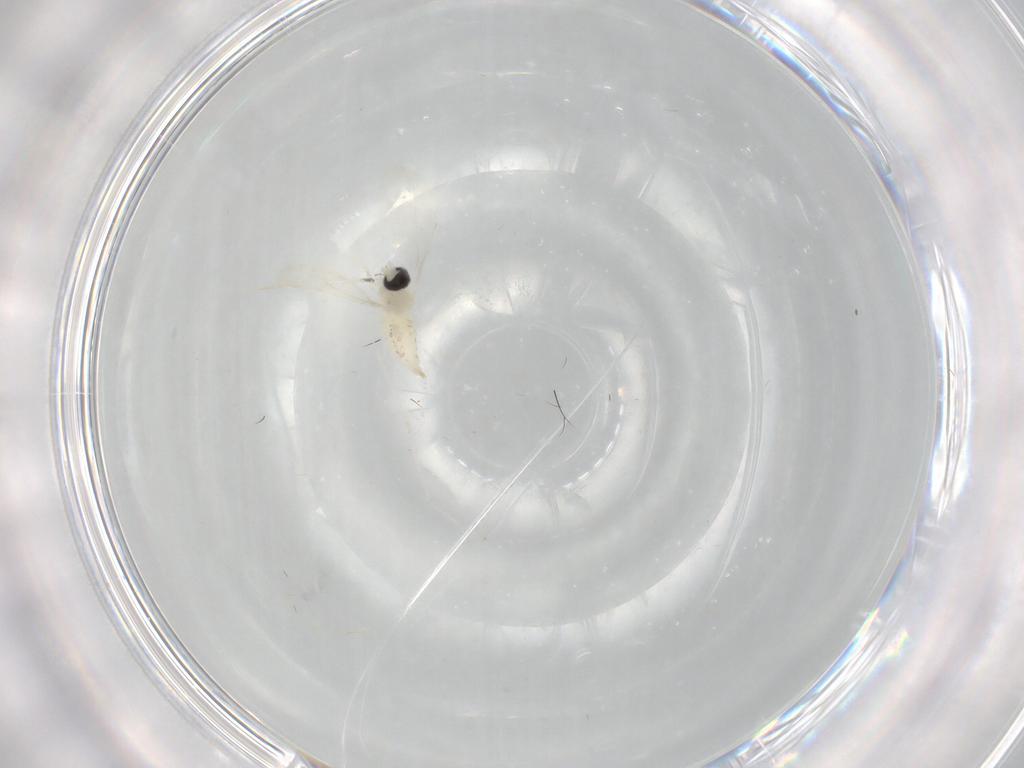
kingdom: Animalia
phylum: Arthropoda
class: Insecta
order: Diptera
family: Cecidomyiidae
